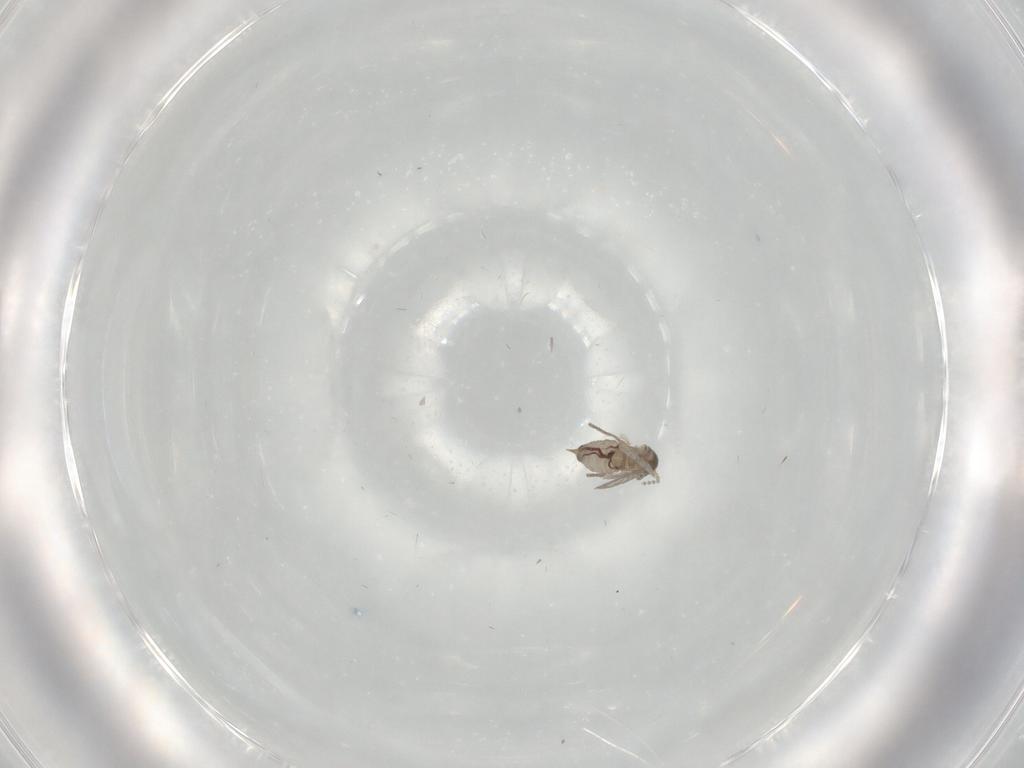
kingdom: Animalia
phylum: Arthropoda
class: Insecta
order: Diptera
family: Psychodidae
